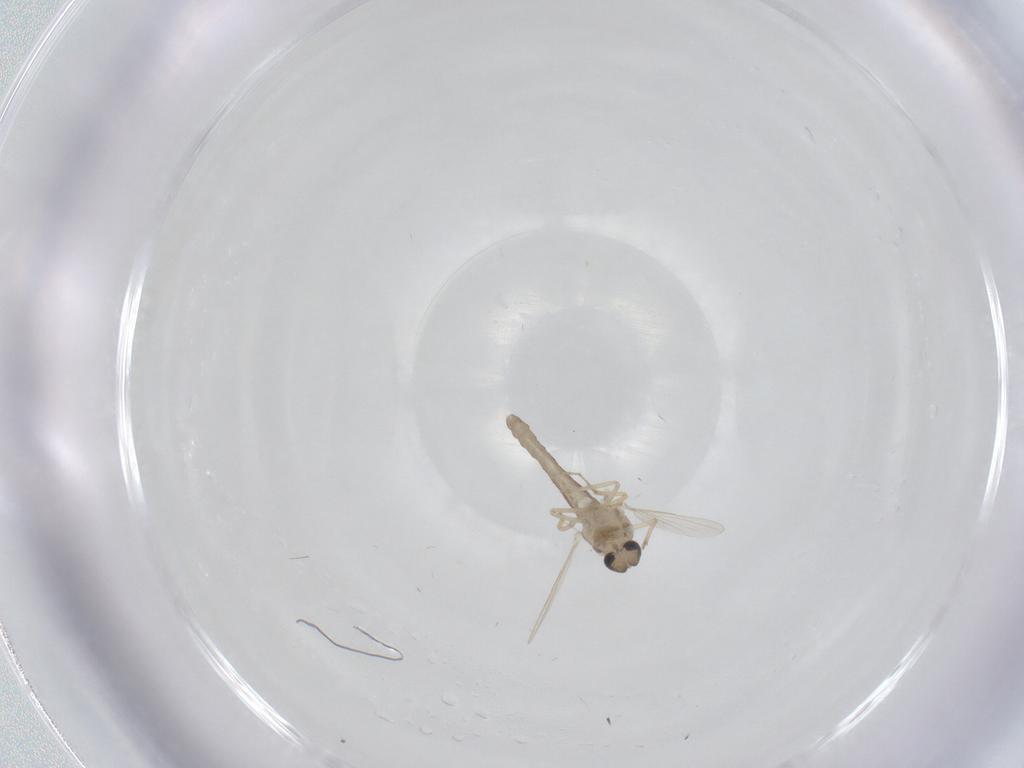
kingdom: Animalia
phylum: Arthropoda
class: Insecta
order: Diptera
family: Ceratopogonidae
